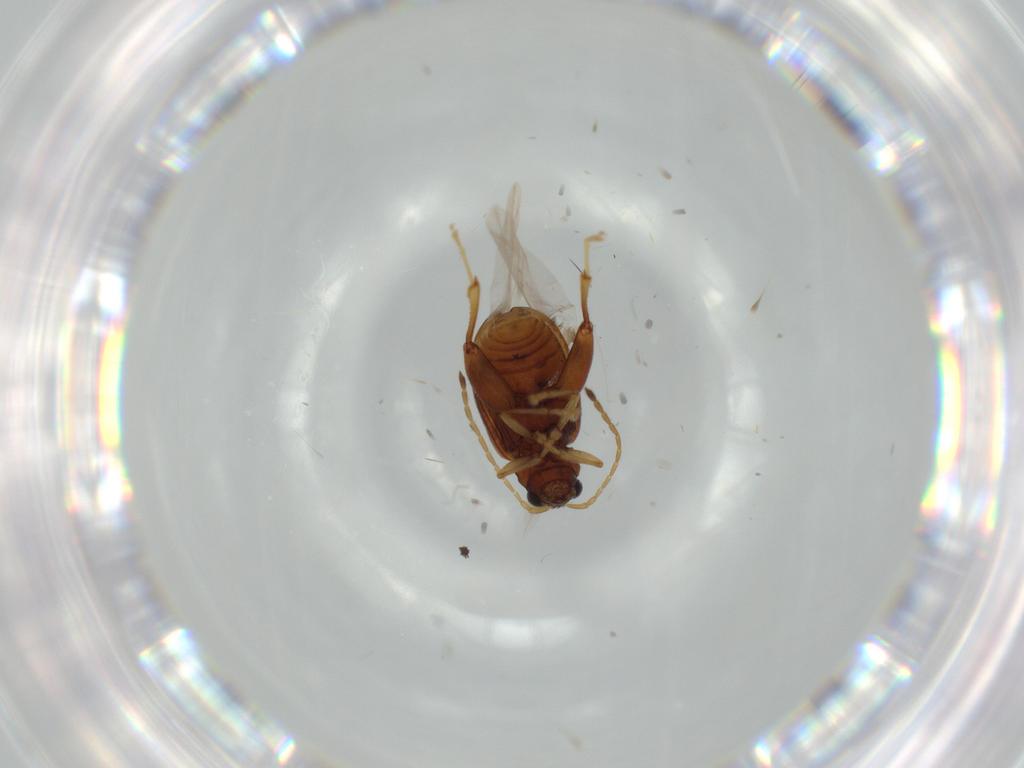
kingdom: Animalia
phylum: Arthropoda
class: Insecta
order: Coleoptera
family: Chrysomelidae
